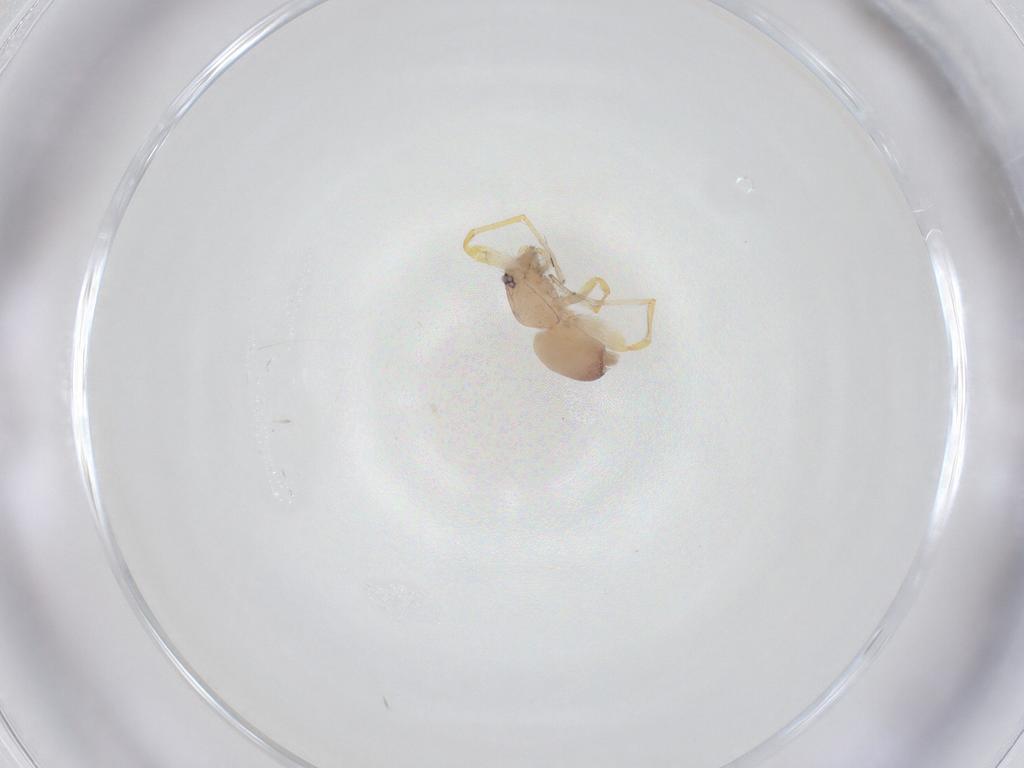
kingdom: Animalia
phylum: Arthropoda
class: Arachnida
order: Araneae
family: Idiopidae
